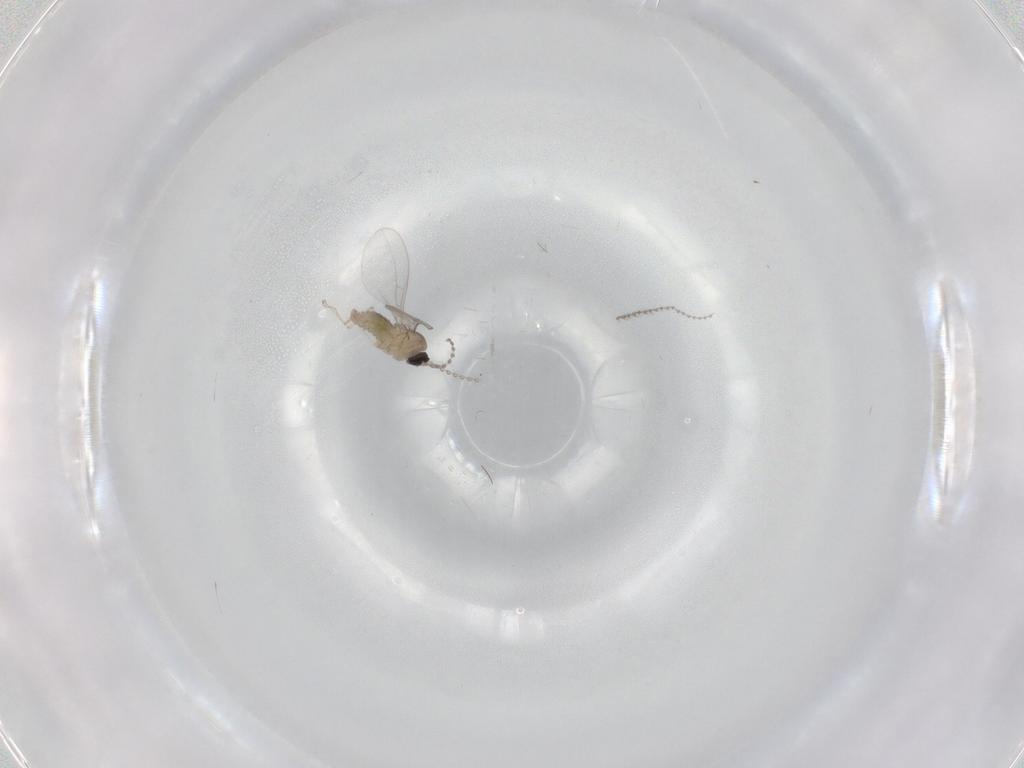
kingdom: Animalia
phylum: Arthropoda
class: Insecta
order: Diptera
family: Cecidomyiidae
